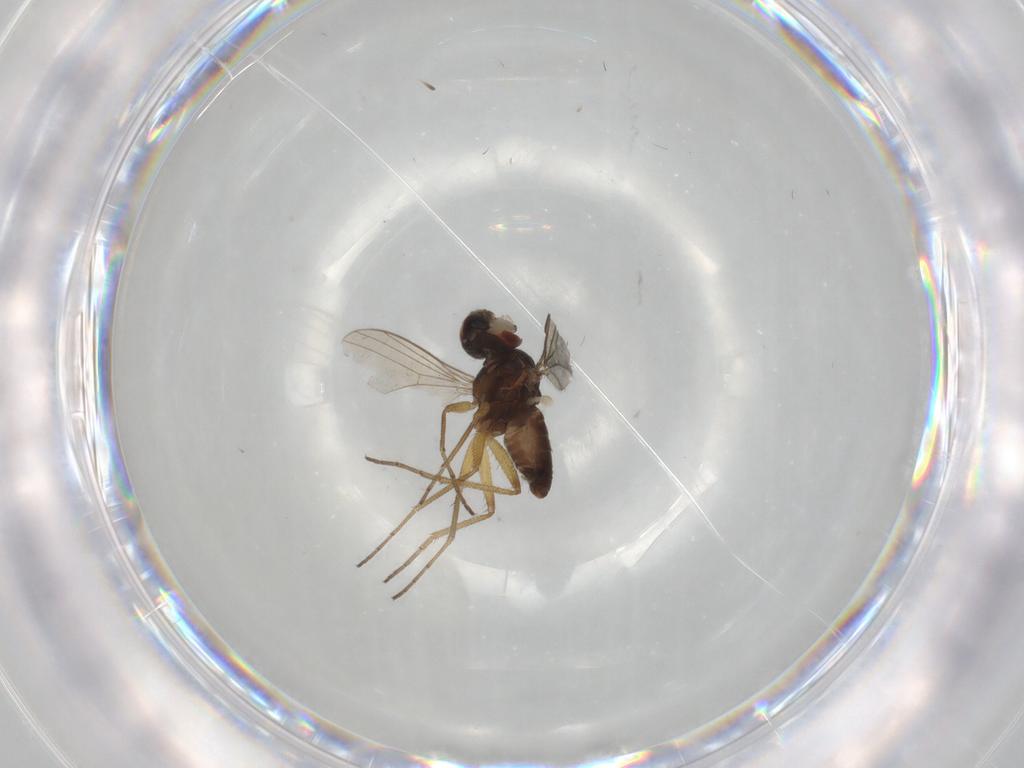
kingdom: Animalia
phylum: Arthropoda
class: Insecta
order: Diptera
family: Dolichopodidae
